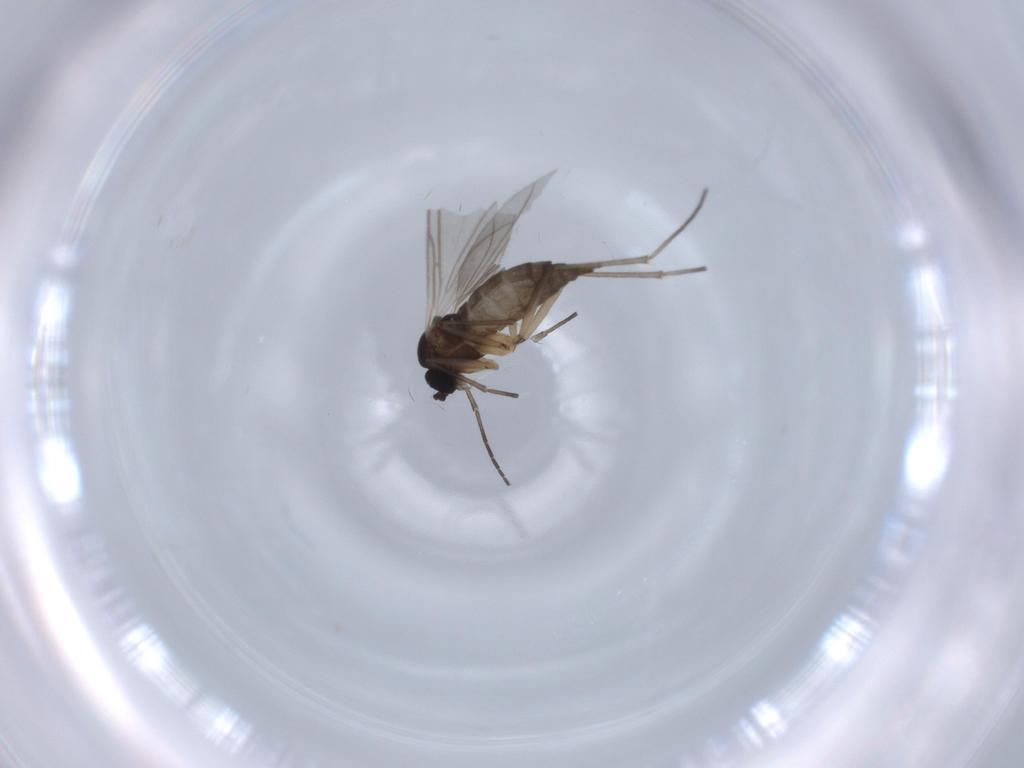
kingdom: Animalia
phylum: Arthropoda
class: Insecta
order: Diptera
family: Sciaridae
